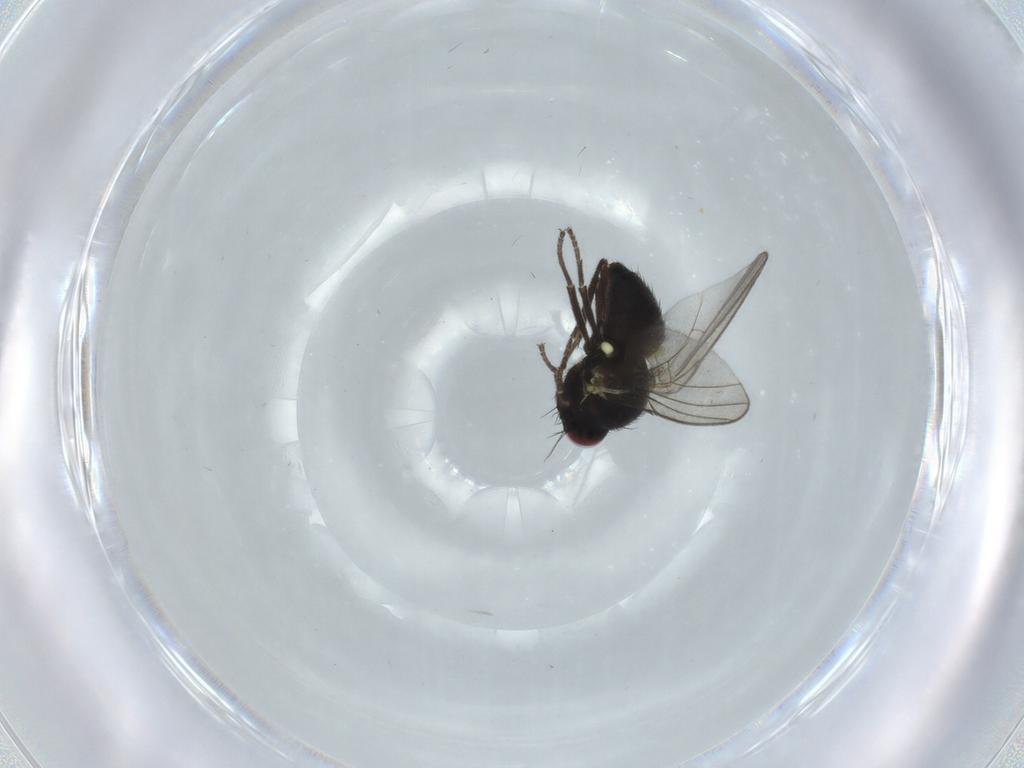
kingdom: Animalia
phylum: Arthropoda
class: Insecta
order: Diptera
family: Agromyzidae
